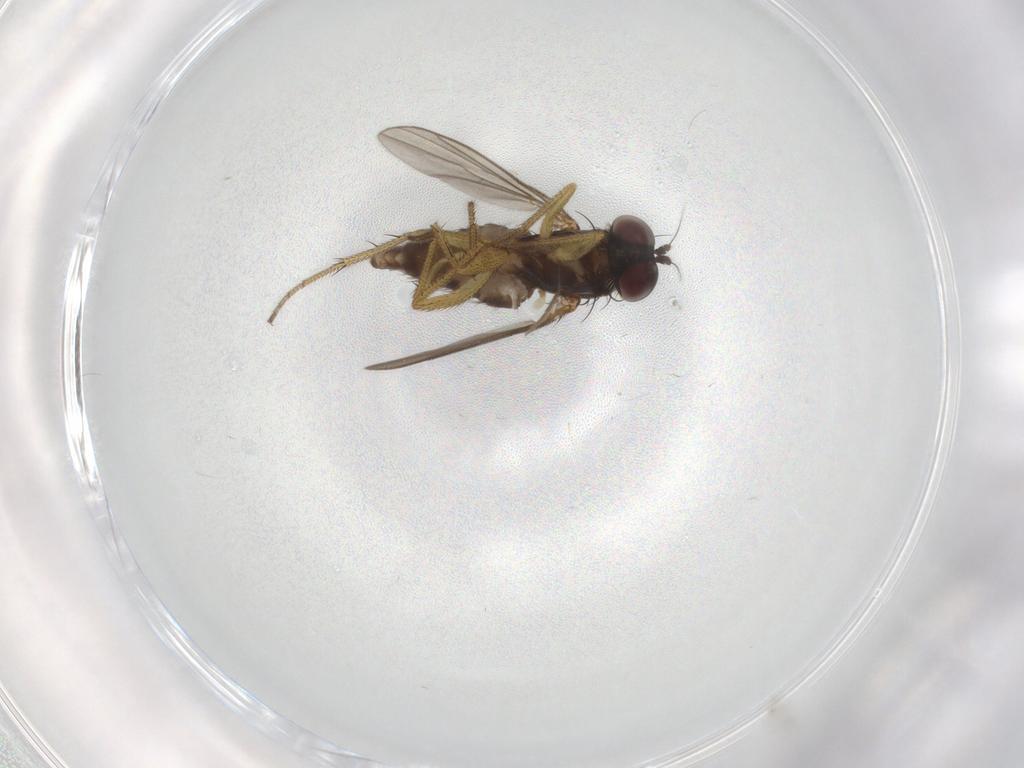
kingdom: Animalia
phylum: Arthropoda
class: Insecta
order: Diptera
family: Dolichopodidae
